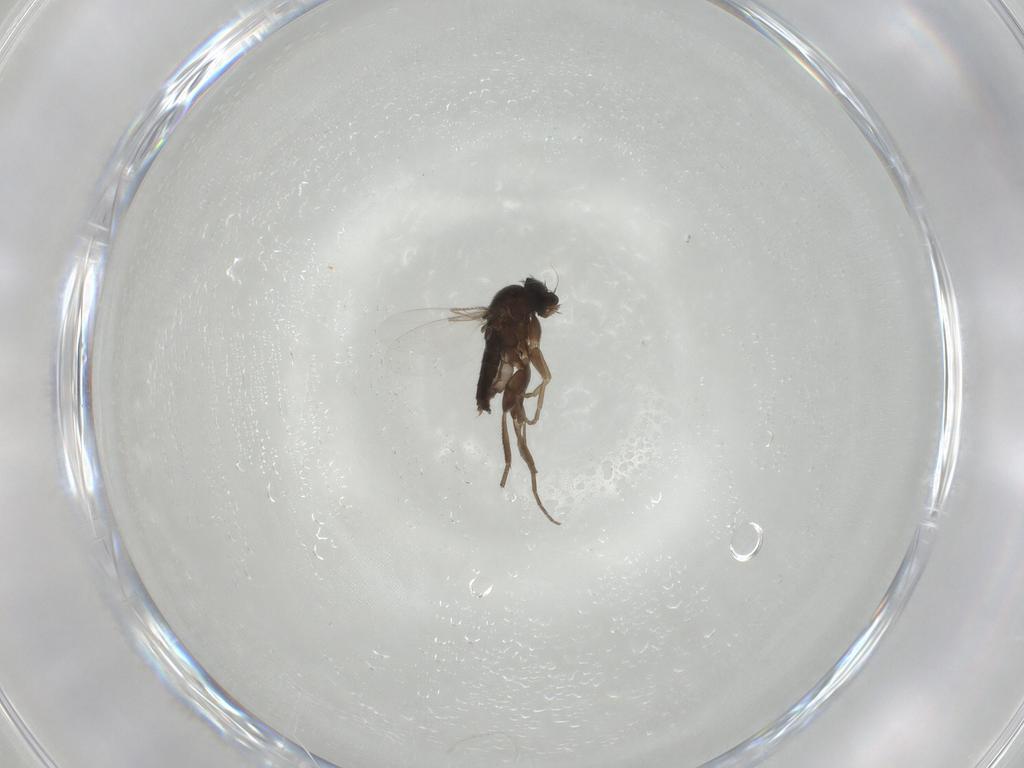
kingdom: Animalia
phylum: Arthropoda
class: Insecta
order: Diptera
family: Phoridae
